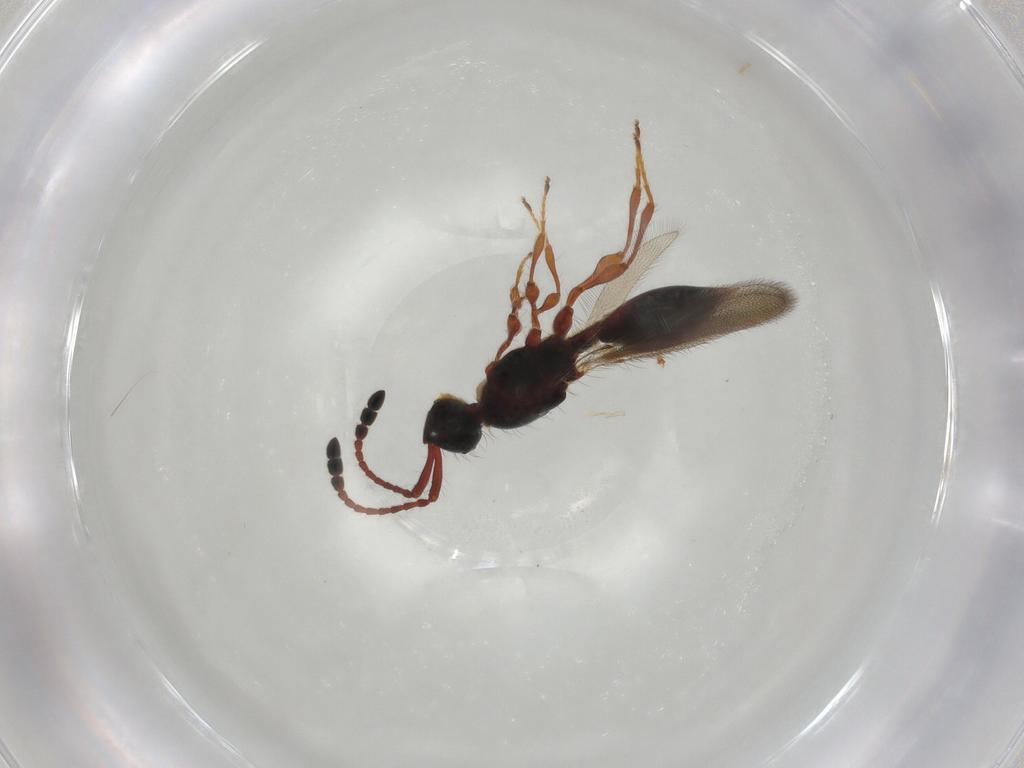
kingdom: Animalia
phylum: Arthropoda
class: Insecta
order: Hymenoptera
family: Diapriidae
